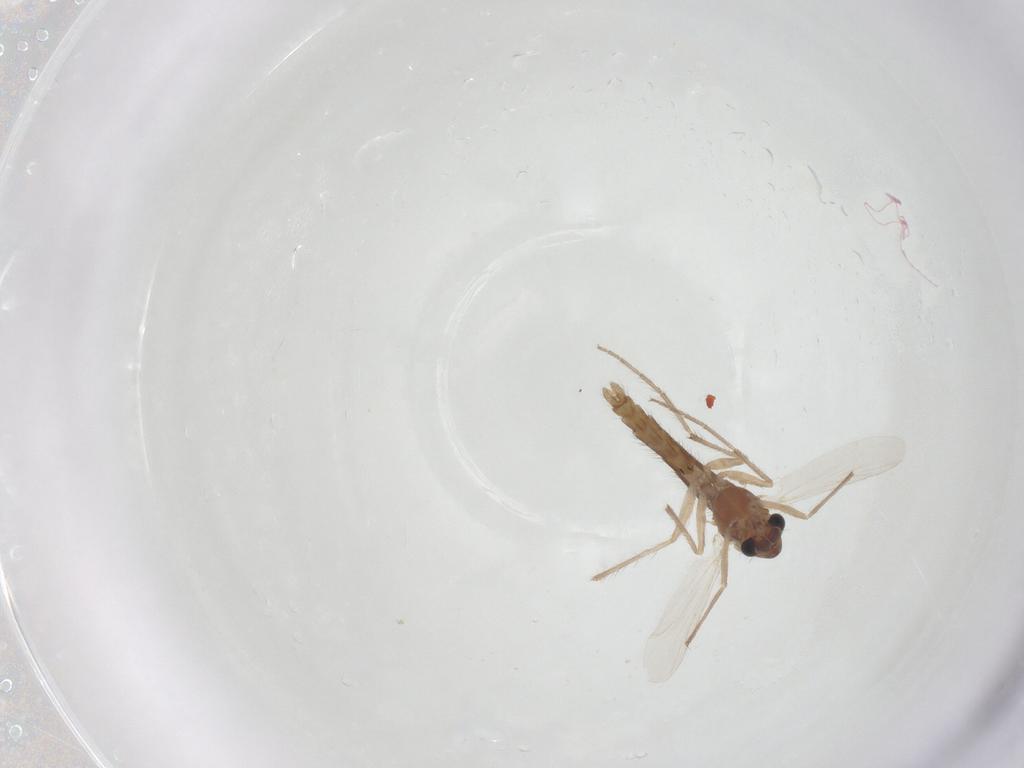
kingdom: Animalia
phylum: Arthropoda
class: Insecta
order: Diptera
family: Chironomidae
